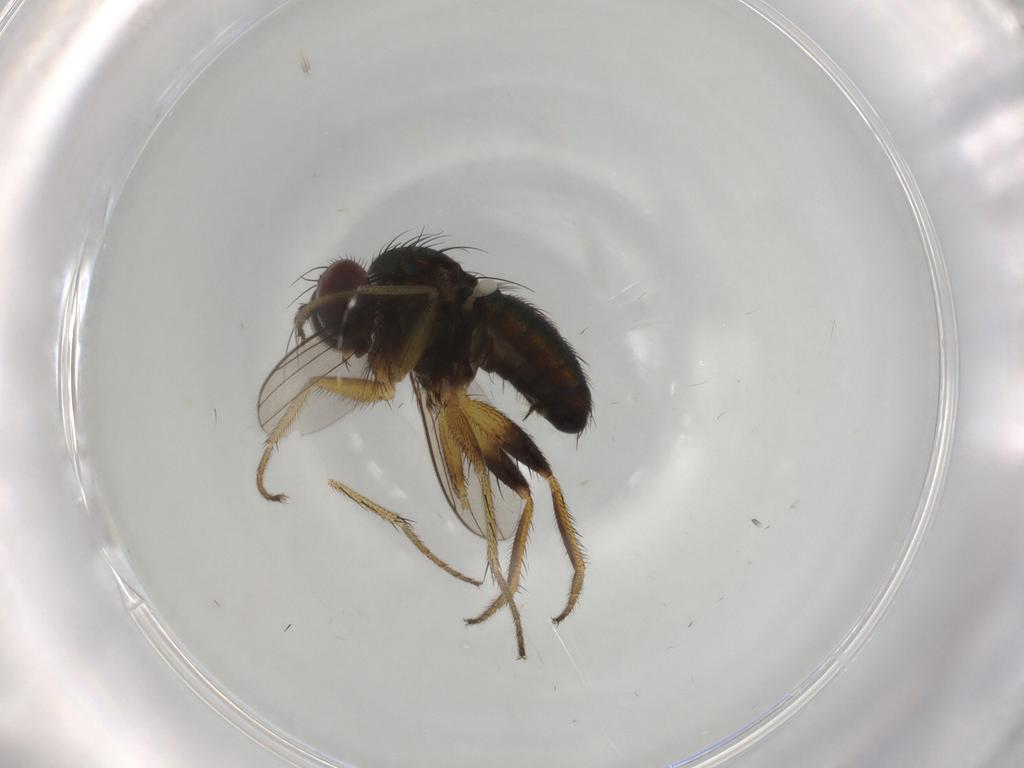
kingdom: Animalia
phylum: Arthropoda
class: Insecta
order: Diptera
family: Dolichopodidae
